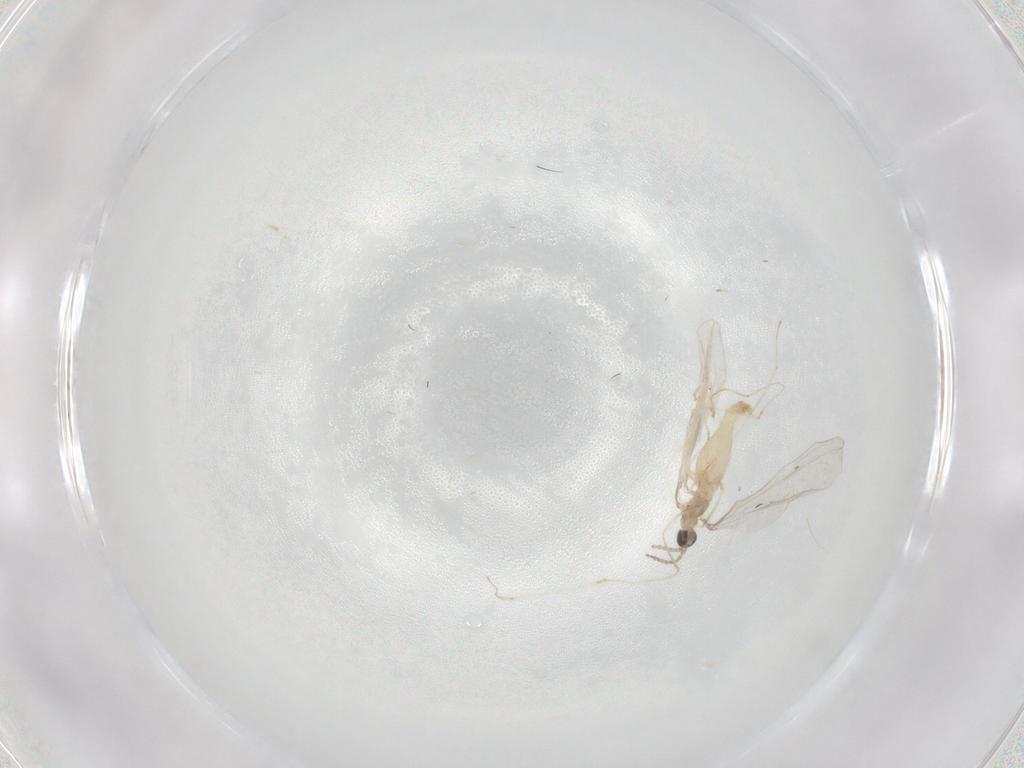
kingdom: Animalia
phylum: Arthropoda
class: Insecta
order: Diptera
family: Cecidomyiidae
